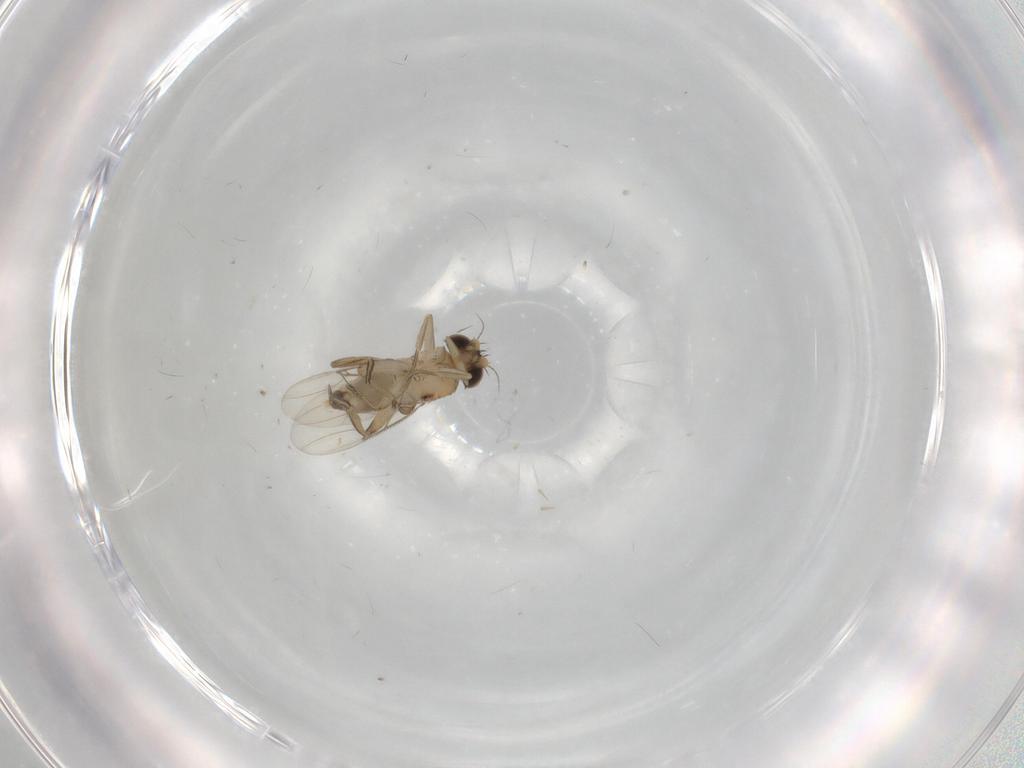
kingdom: Animalia
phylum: Arthropoda
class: Insecta
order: Diptera
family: Phoridae
